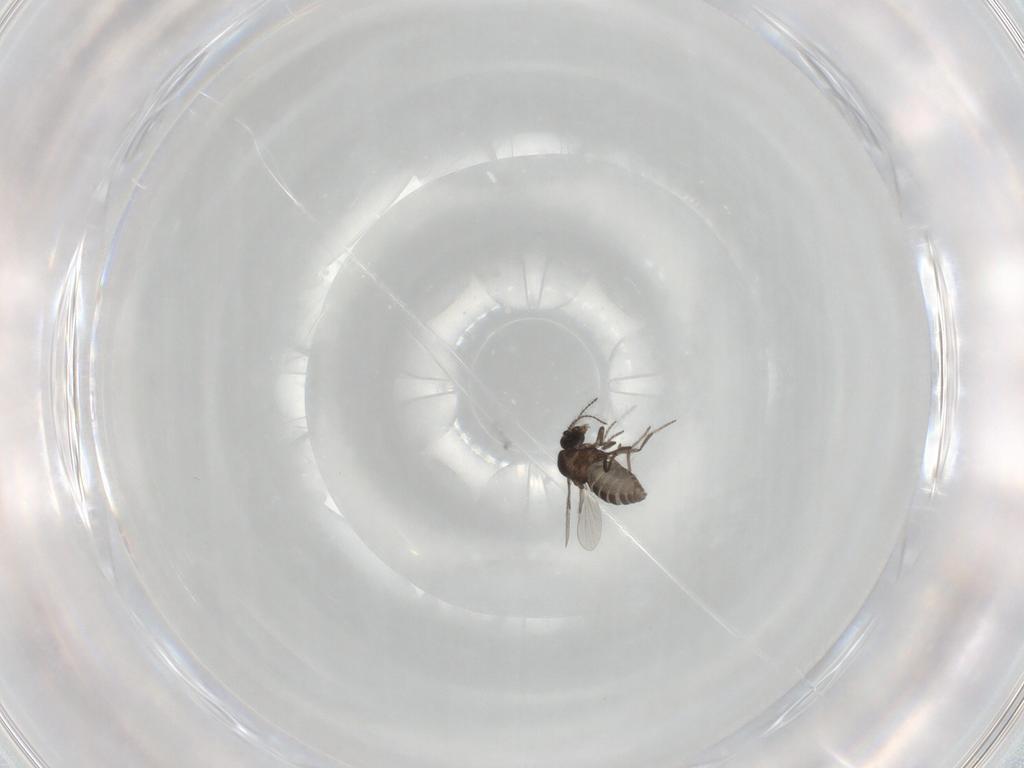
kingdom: Animalia
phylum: Arthropoda
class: Insecta
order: Diptera
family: Ceratopogonidae
